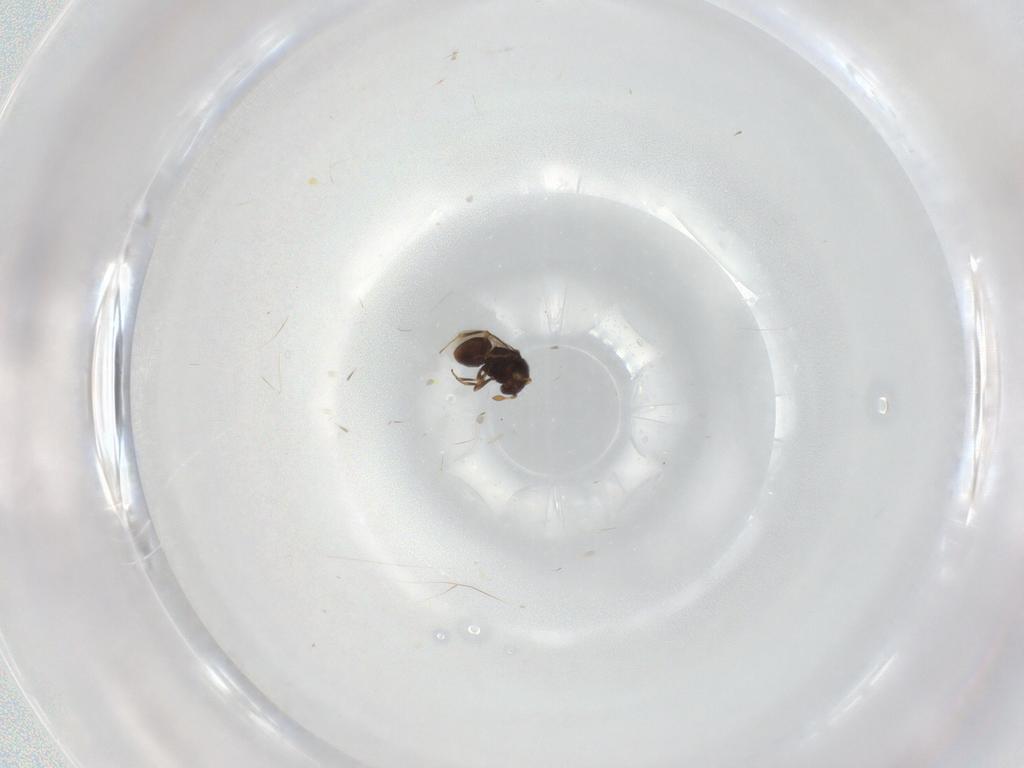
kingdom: Animalia
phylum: Arthropoda
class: Insecta
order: Hymenoptera
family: Scelionidae
